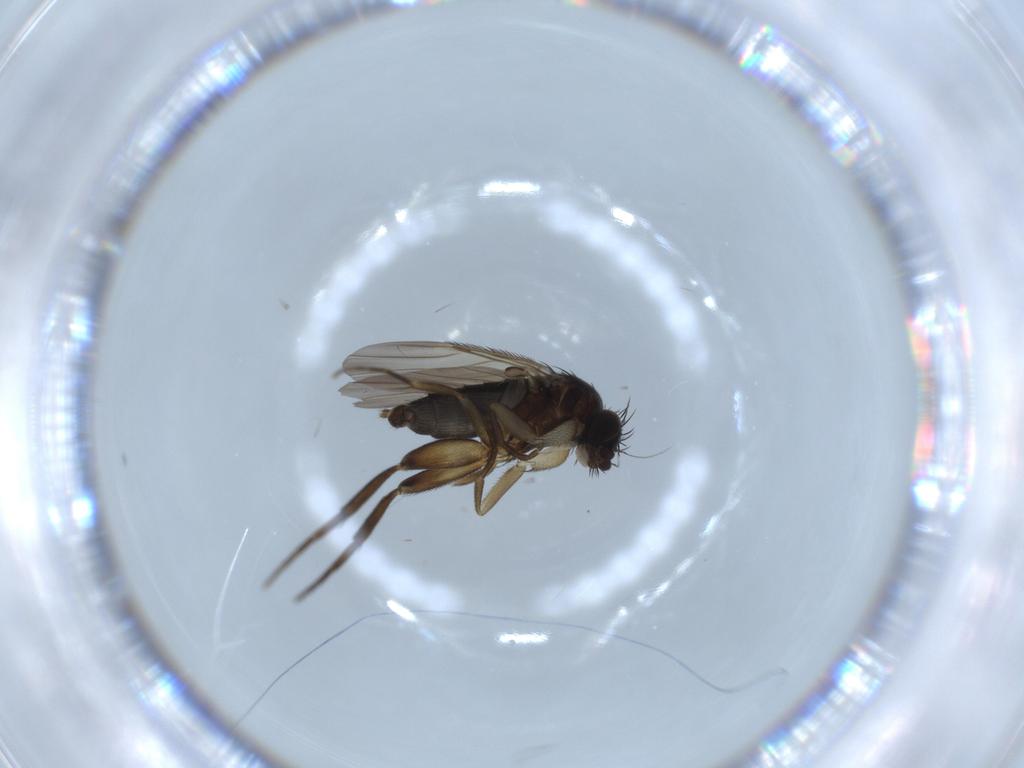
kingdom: Animalia
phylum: Arthropoda
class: Insecta
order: Diptera
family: Phoridae
